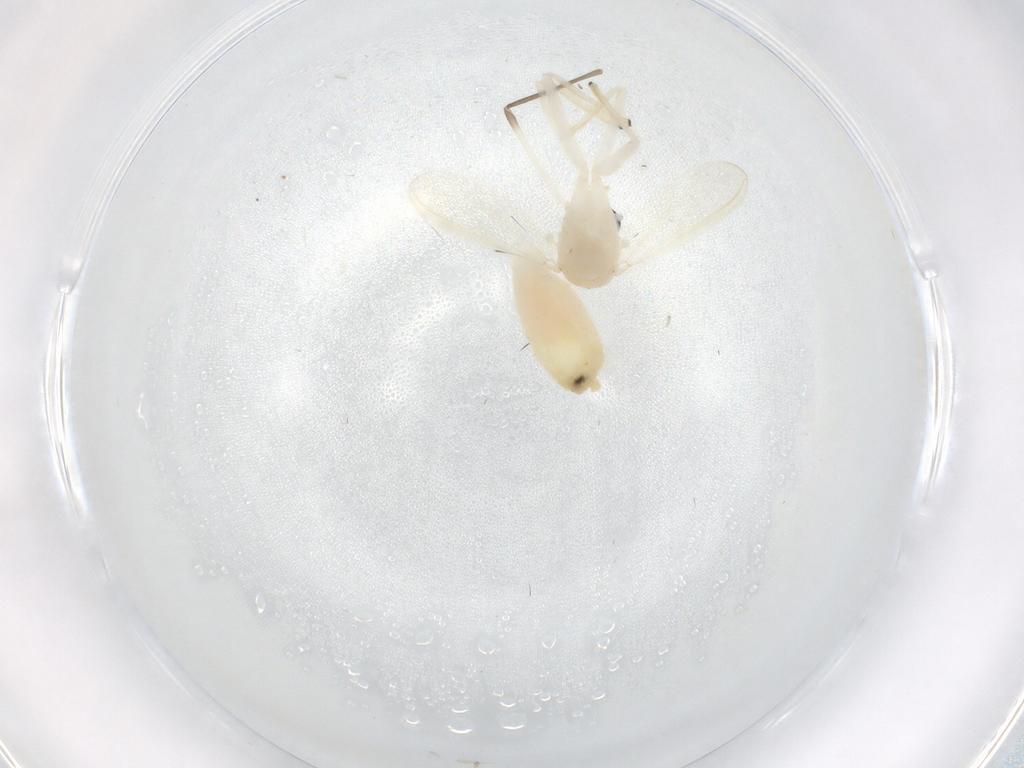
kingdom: Animalia
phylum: Arthropoda
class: Insecta
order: Diptera
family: Chironomidae
